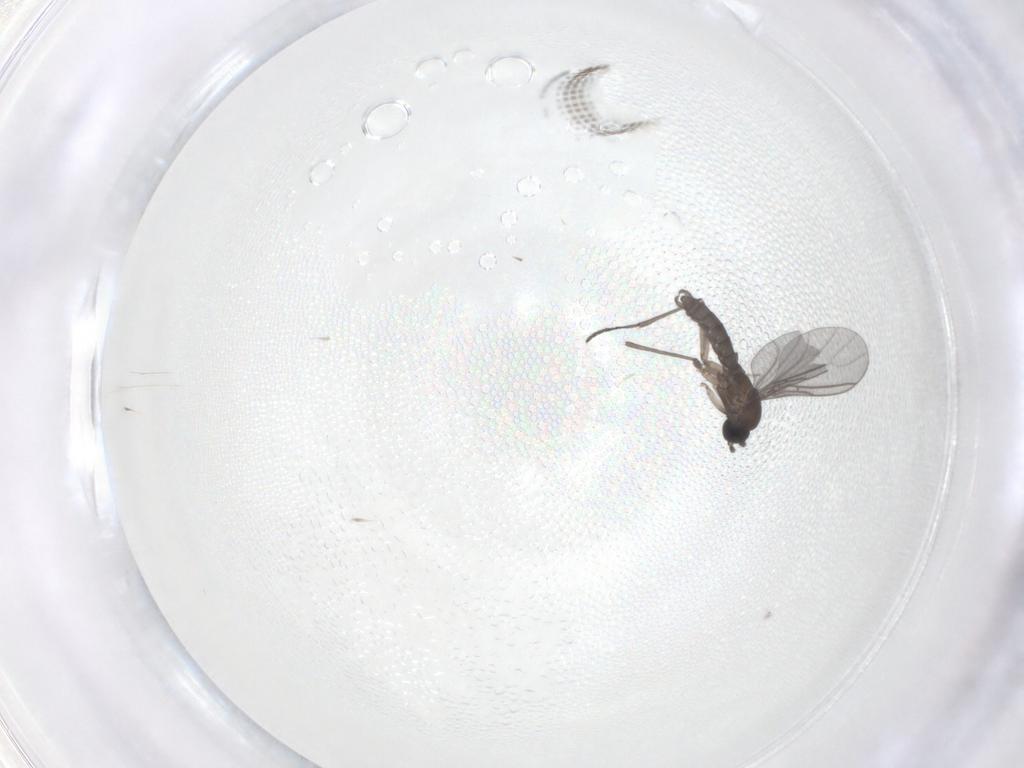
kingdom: Animalia
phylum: Arthropoda
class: Insecta
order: Diptera
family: Sciaridae
